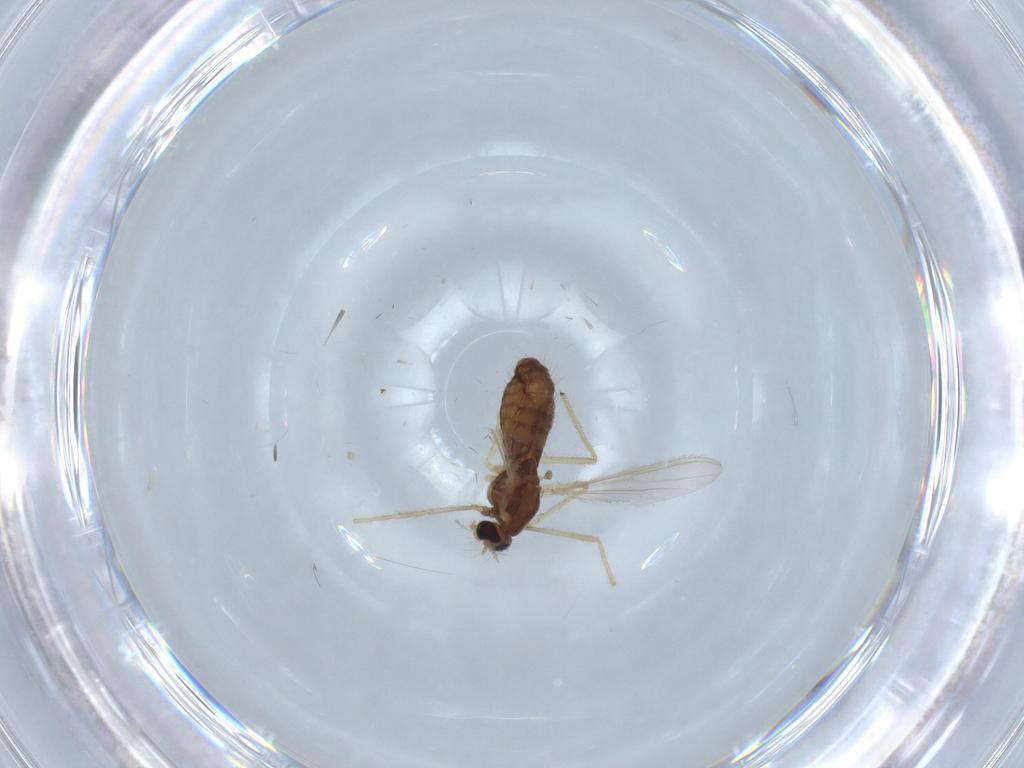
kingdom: Animalia
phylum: Arthropoda
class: Insecta
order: Diptera
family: Chironomidae
